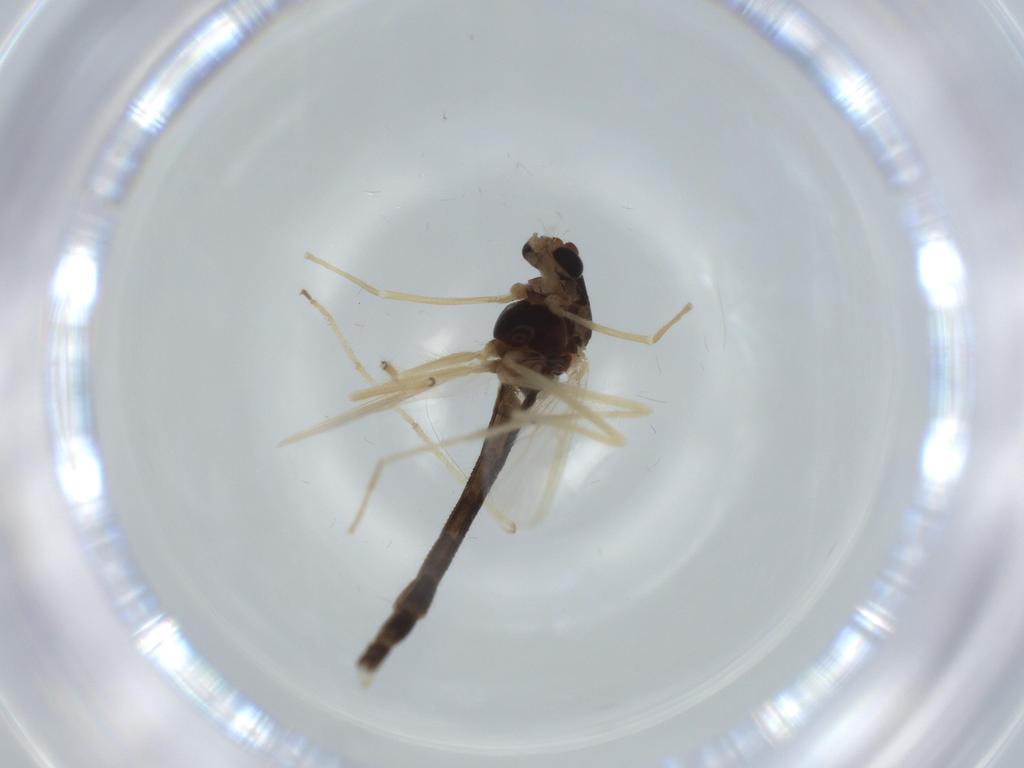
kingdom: Animalia
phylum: Arthropoda
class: Insecta
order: Diptera
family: Chironomidae
